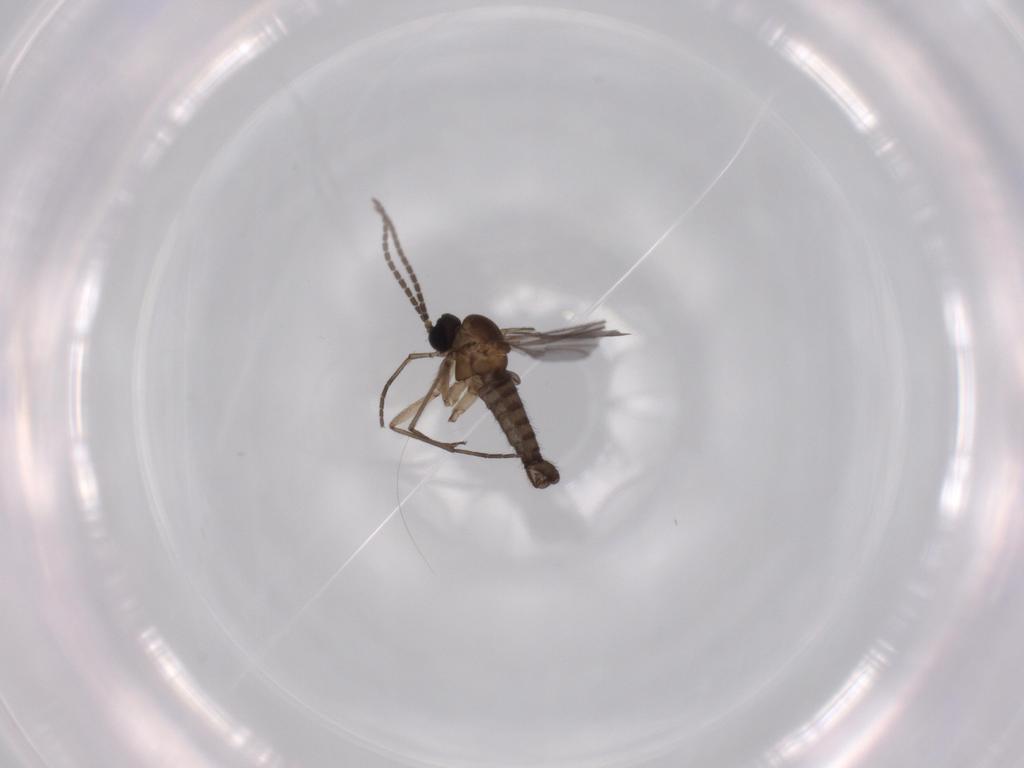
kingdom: Animalia
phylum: Arthropoda
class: Insecta
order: Diptera
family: Sciaridae
